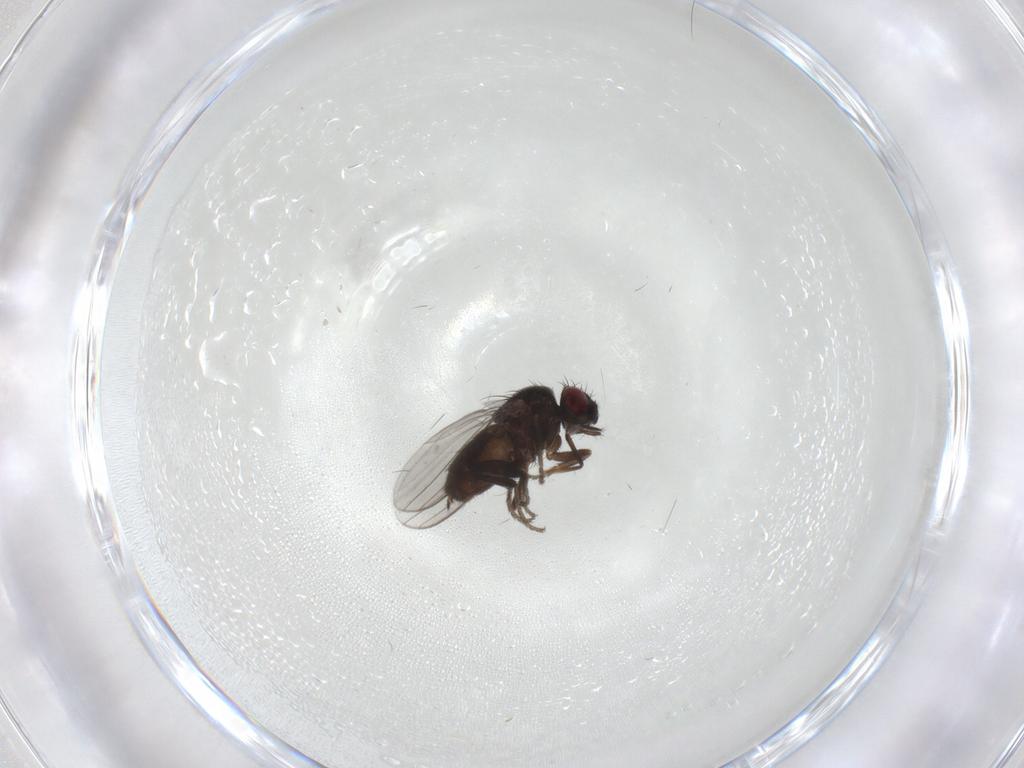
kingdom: Animalia
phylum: Arthropoda
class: Insecta
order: Diptera
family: Milichiidae
